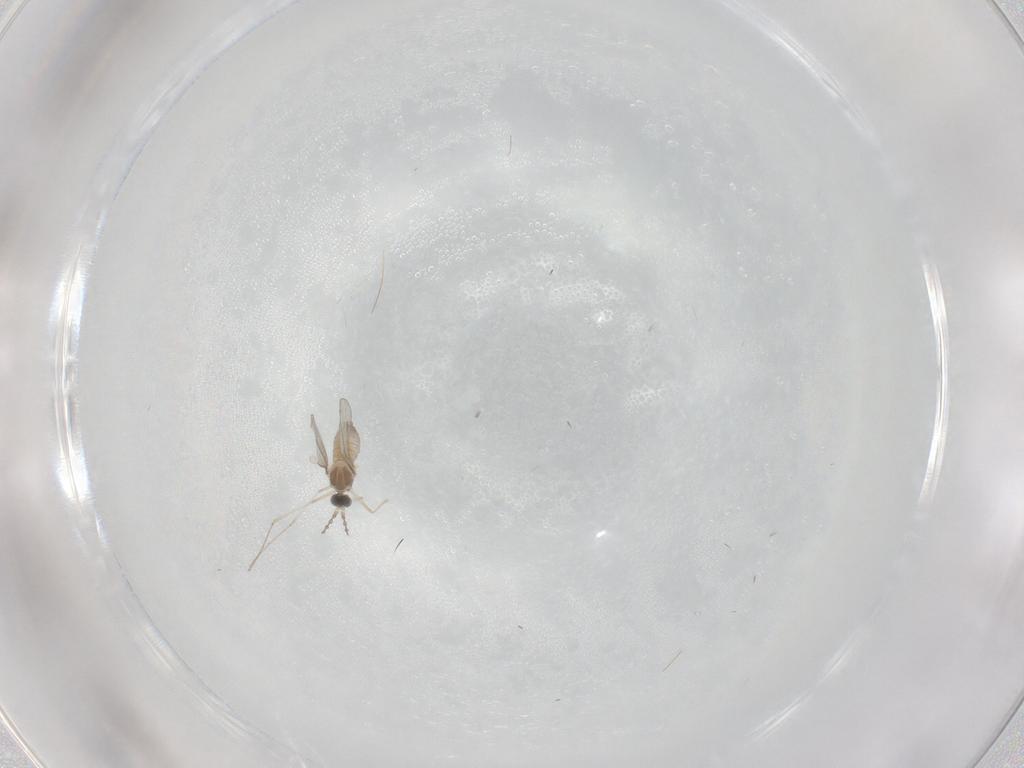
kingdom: Animalia
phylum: Arthropoda
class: Insecta
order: Diptera
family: Cecidomyiidae
